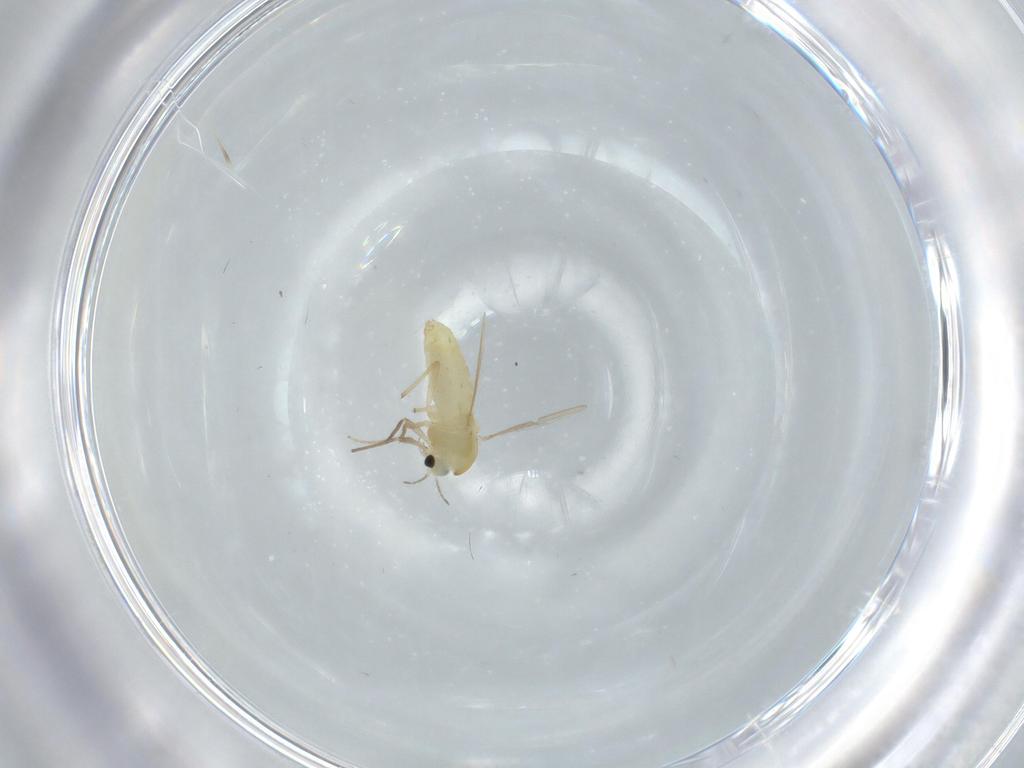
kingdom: Animalia
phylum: Arthropoda
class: Insecta
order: Diptera
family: Chironomidae
